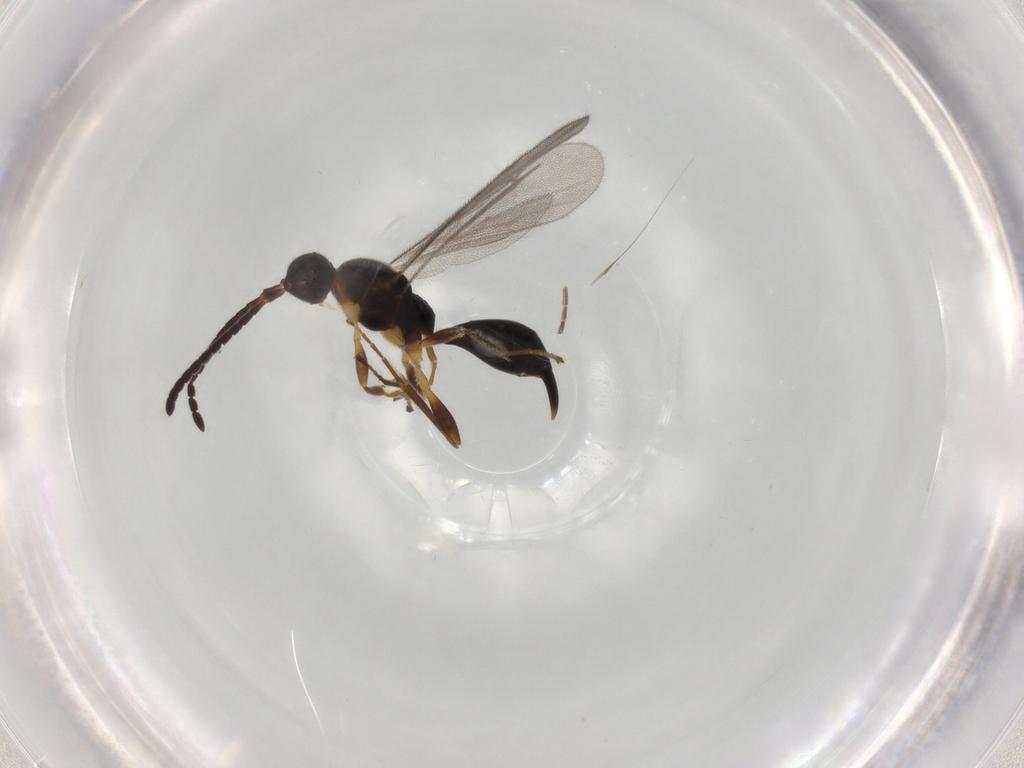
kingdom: Animalia
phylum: Arthropoda
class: Insecta
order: Hymenoptera
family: Proctotrupidae
